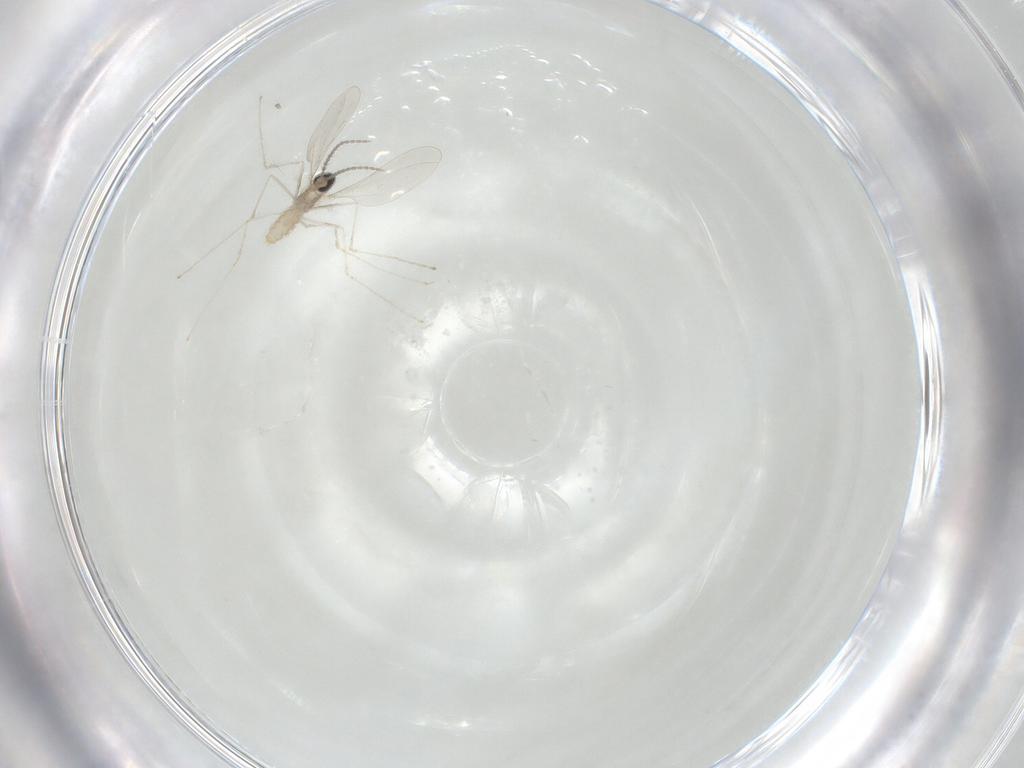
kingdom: Animalia
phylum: Arthropoda
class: Insecta
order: Diptera
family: Cecidomyiidae
